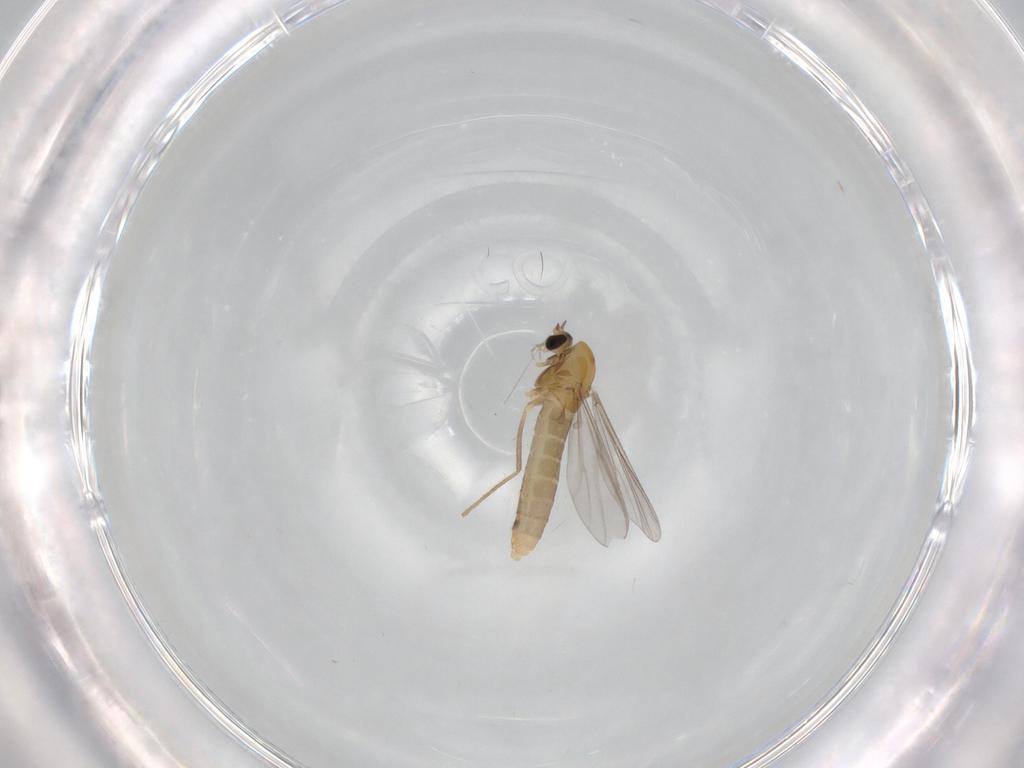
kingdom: Animalia
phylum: Arthropoda
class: Insecta
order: Diptera
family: Chironomidae
